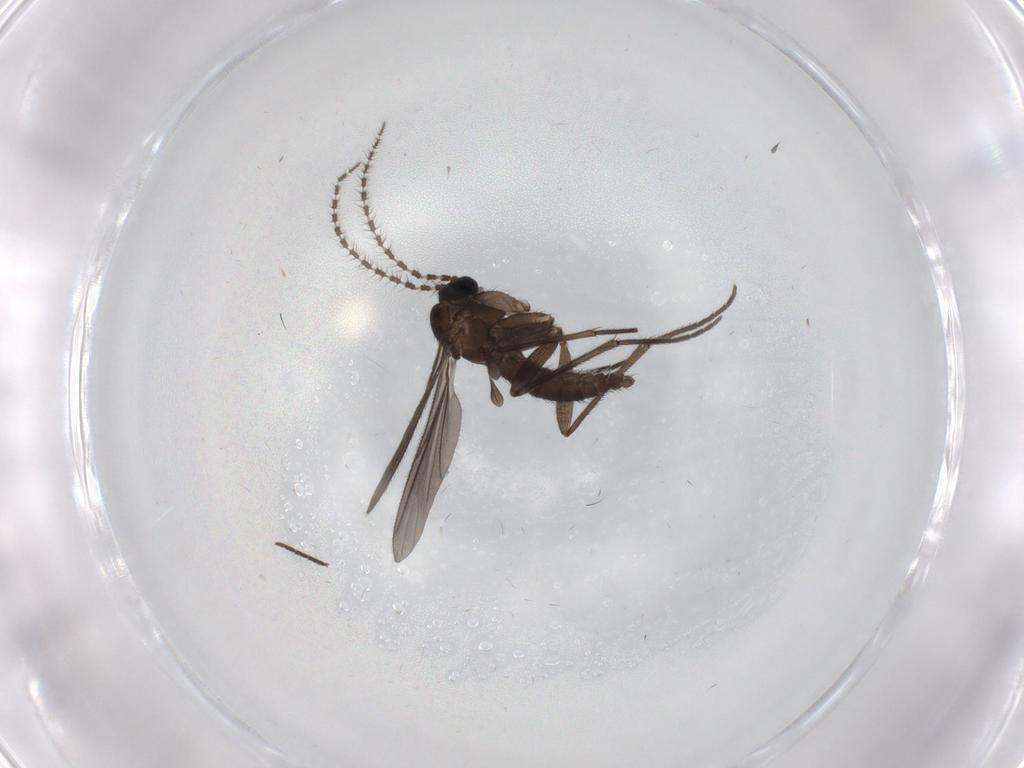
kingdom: Animalia
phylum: Arthropoda
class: Insecta
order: Diptera
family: Sciaridae
